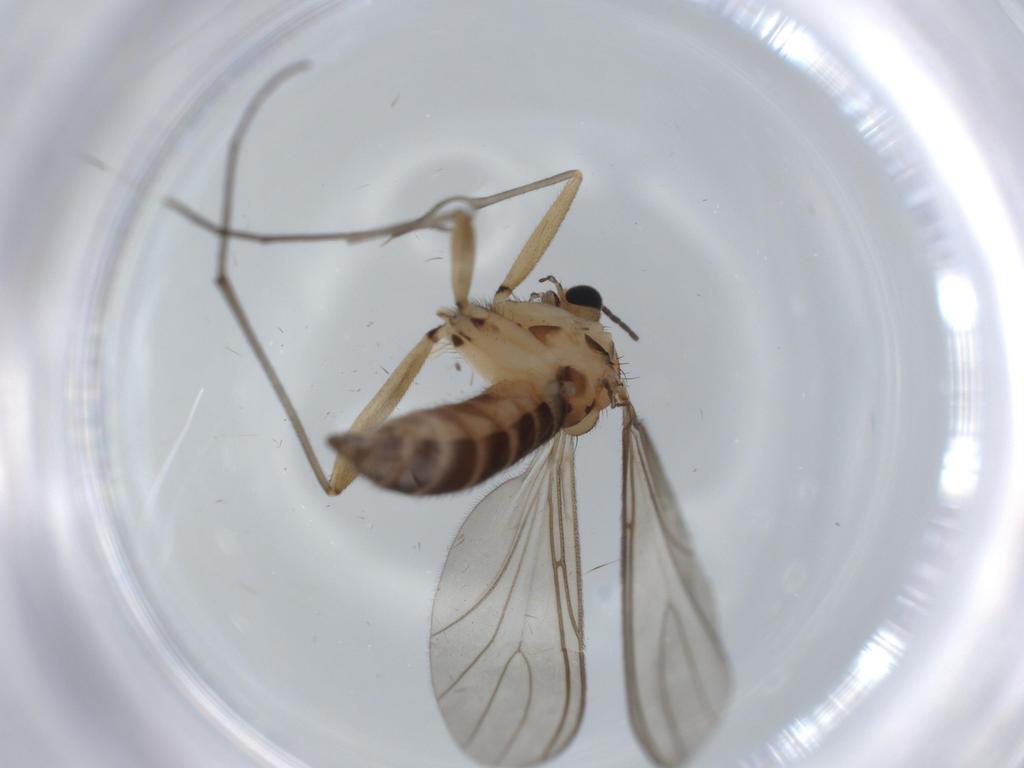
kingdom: Animalia
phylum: Arthropoda
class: Insecta
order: Diptera
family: Sciaridae
